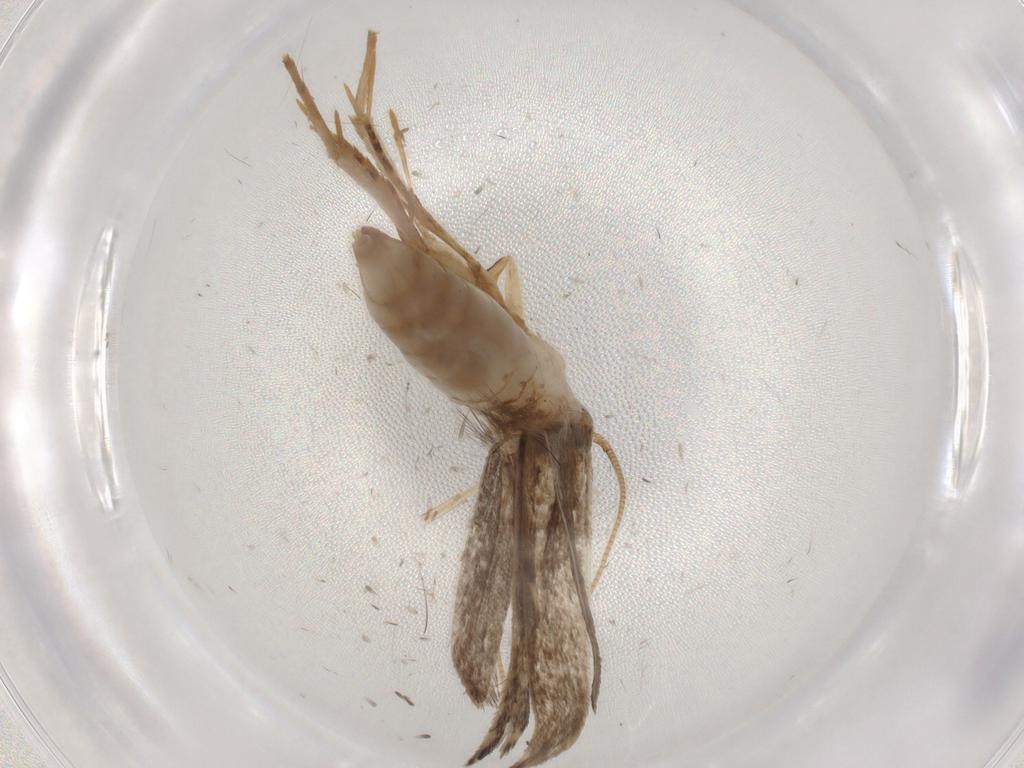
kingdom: Animalia
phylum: Arthropoda
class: Insecta
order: Lepidoptera
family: Tineidae
